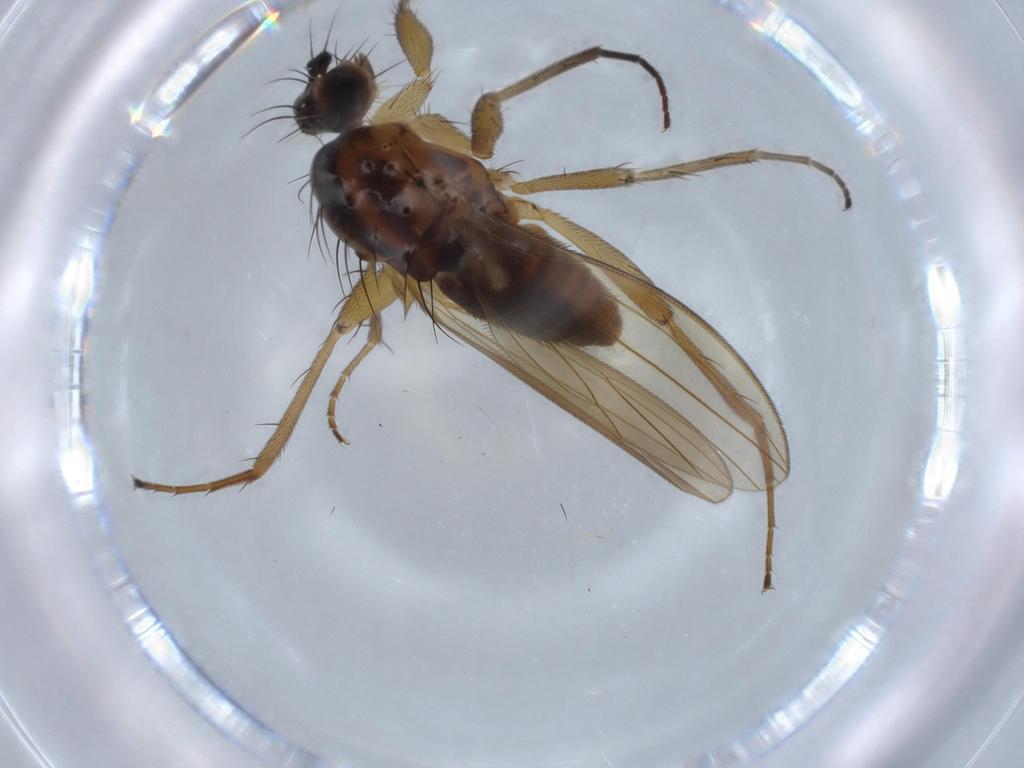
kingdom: Animalia
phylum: Arthropoda
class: Insecta
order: Diptera
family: Lonchopteridae
